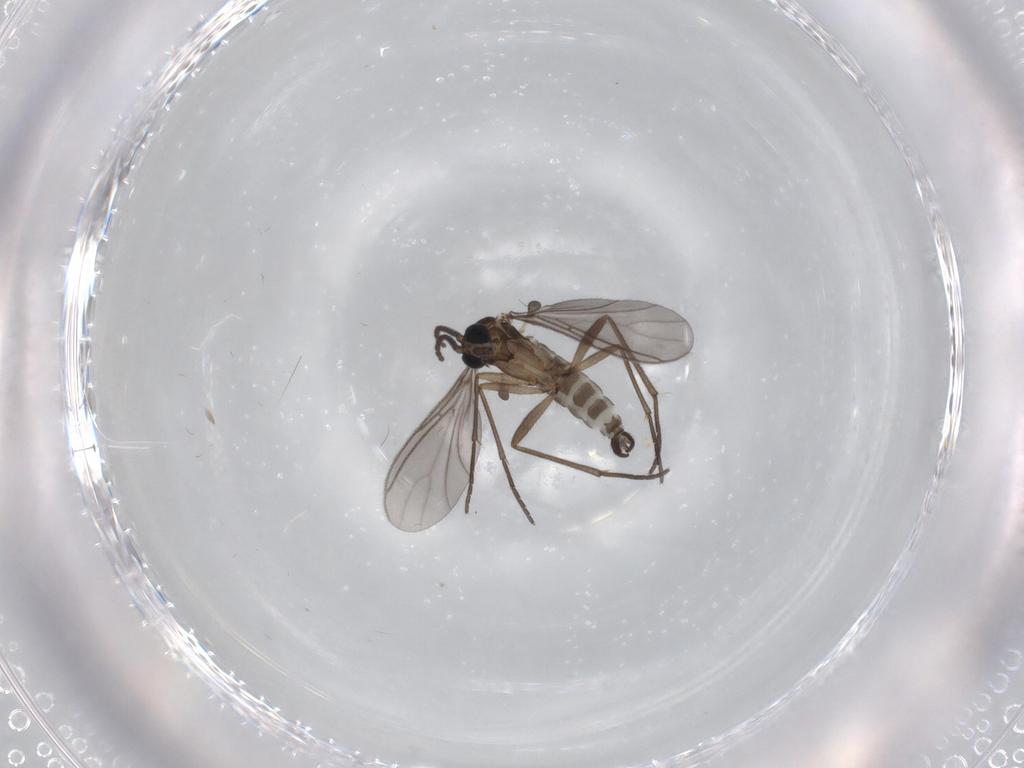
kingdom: Animalia
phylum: Arthropoda
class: Insecta
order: Diptera
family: Sciaridae
